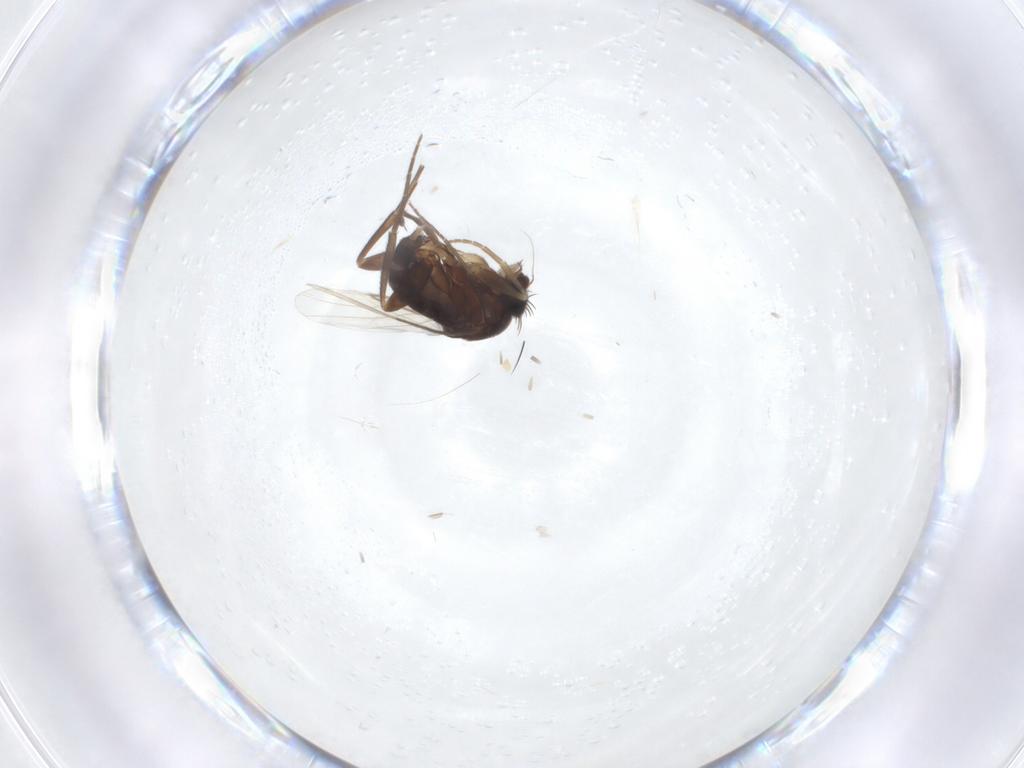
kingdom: Animalia
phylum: Arthropoda
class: Insecta
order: Diptera
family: Phoridae
